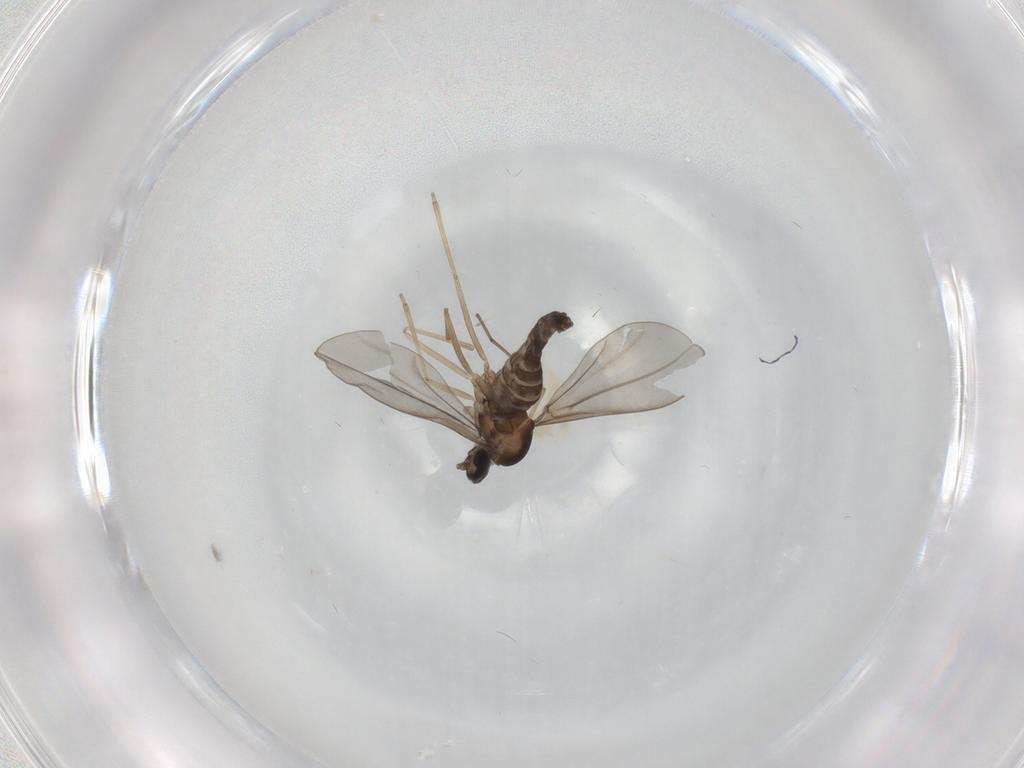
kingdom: Animalia
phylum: Arthropoda
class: Insecta
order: Diptera
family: Cecidomyiidae
